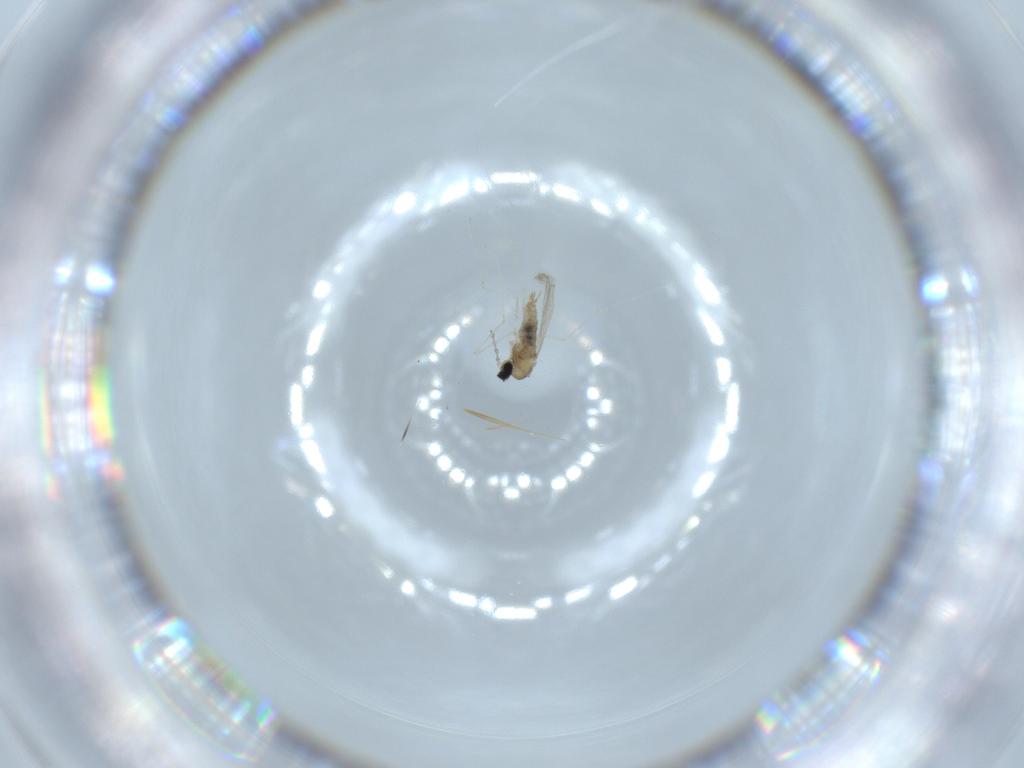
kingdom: Animalia
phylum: Arthropoda
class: Insecta
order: Diptera
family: Cecidomyiidae
